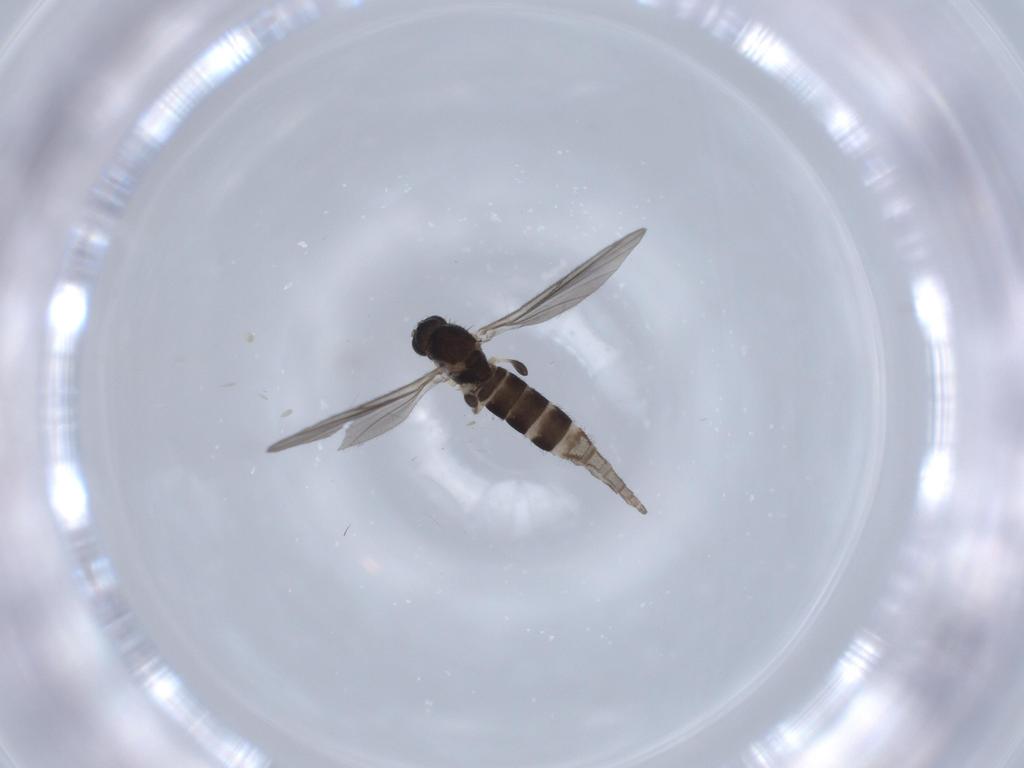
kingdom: Animalia
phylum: Arthropoda
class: Insecta
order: Diptera
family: Sciaridae
